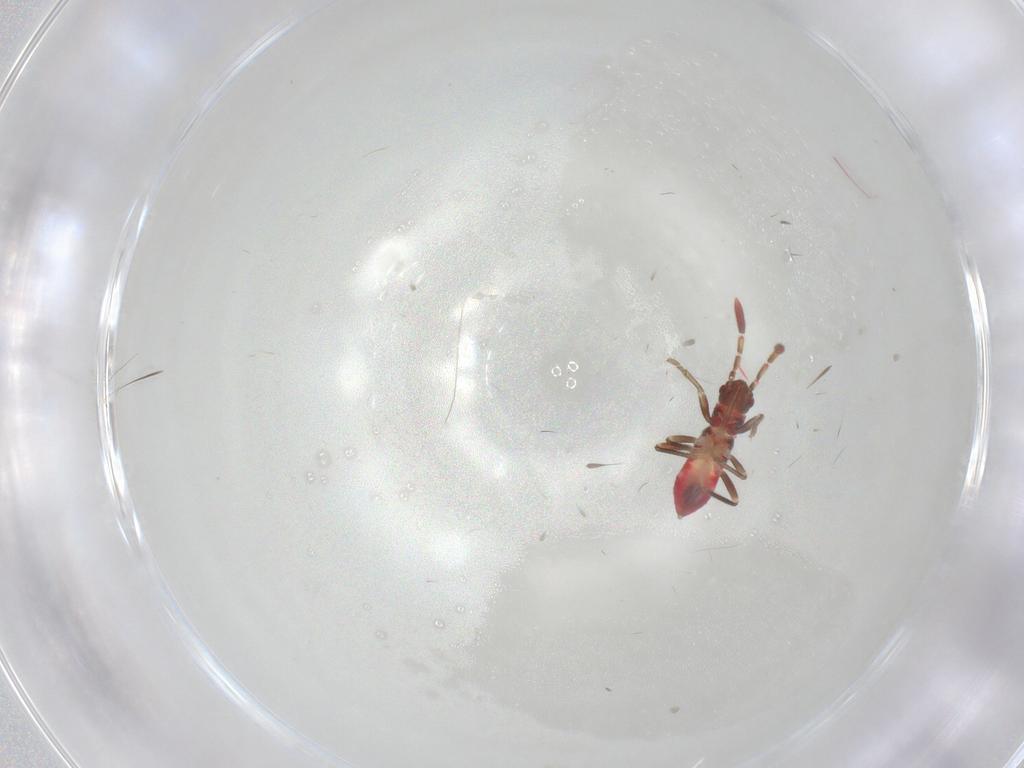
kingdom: Animalia
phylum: Arthropoda
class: Insecta
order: Hemiptera
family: Rhyparochromidae
